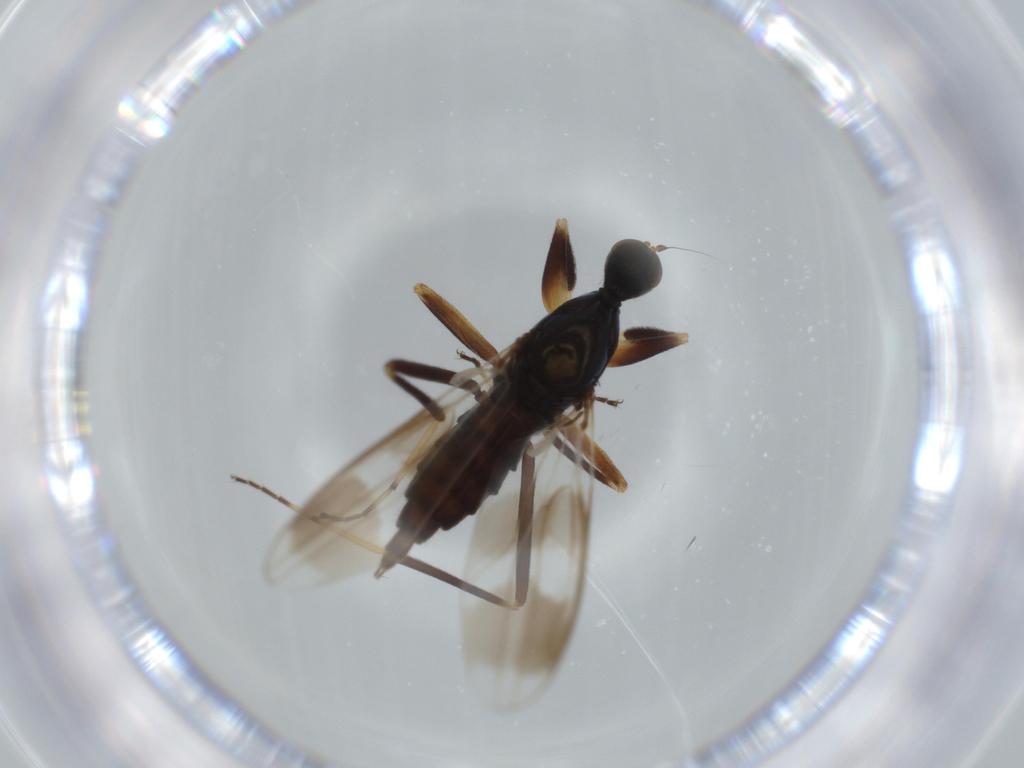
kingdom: Animalia
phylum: Arthropoda
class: Insecta
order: Diptera
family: Hybotidae
